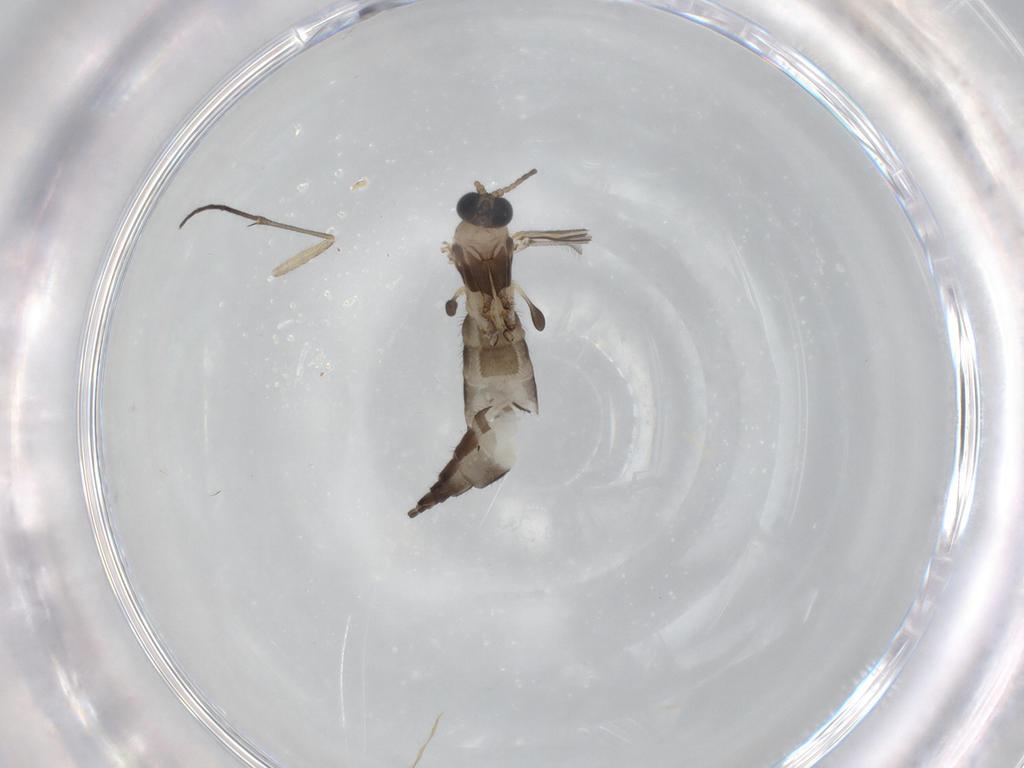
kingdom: Animalia
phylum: Arthropoda
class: Insecta
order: Diptera
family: Sciaridae
